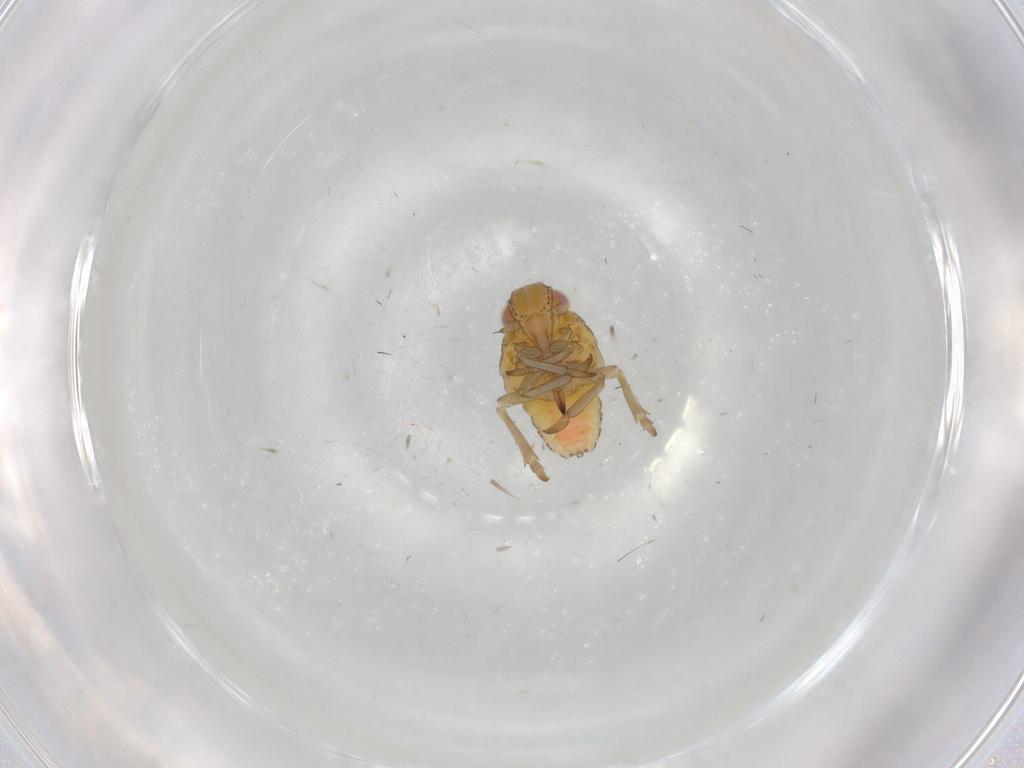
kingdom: Animalia
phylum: Arthropoda
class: Insecta
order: Hemiptera
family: Tropiduchidae
